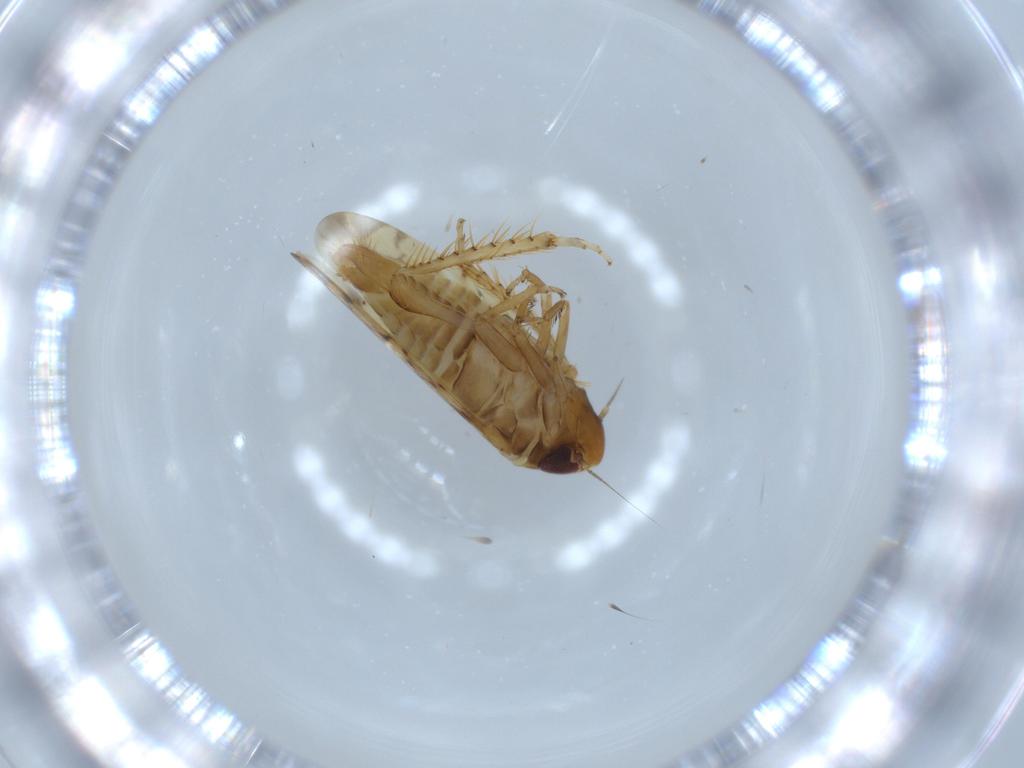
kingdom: Animalia
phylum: Arthropoda
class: Insecta
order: Hemiptera
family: Cicadellidae
